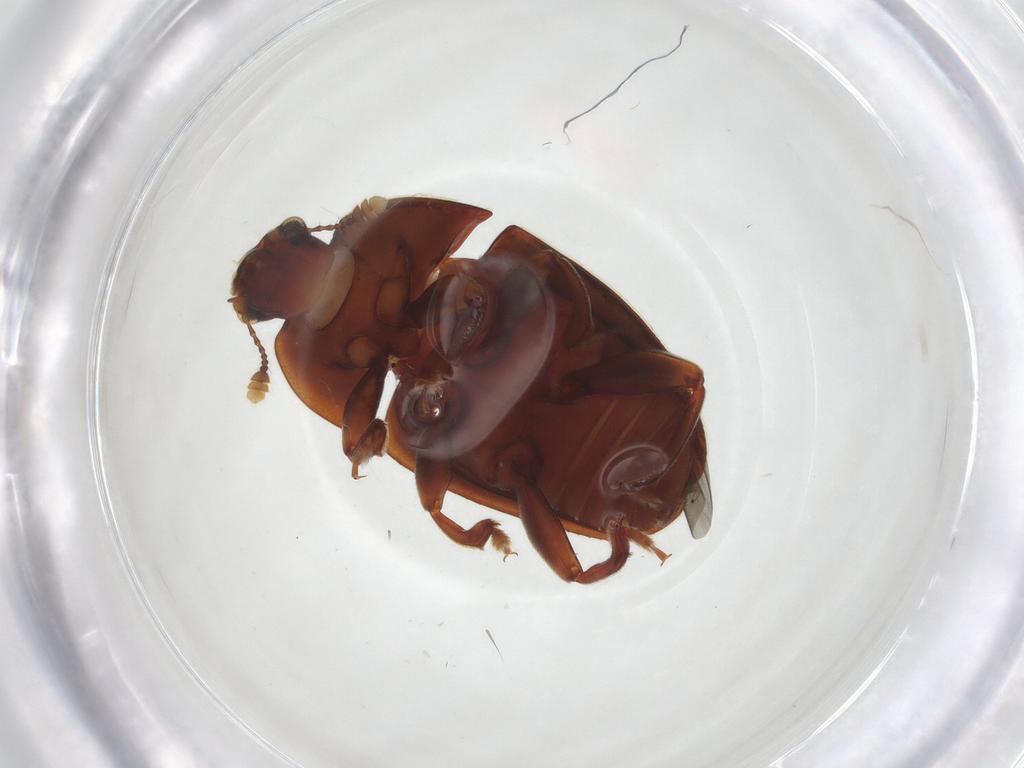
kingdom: Animalia
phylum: Arthropoda
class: Insecta
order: Coleoptera
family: Nitidulidae
